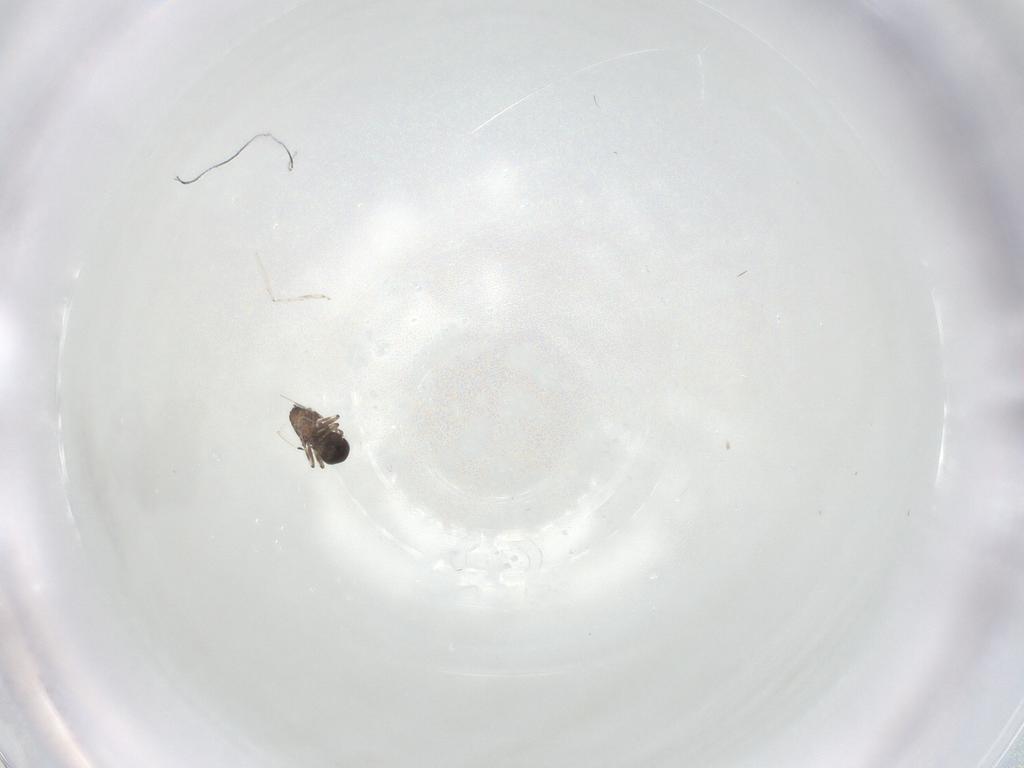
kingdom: Animalia
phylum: Arthropoda
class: Insecta
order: Diptera
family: Ceratopogonidae
